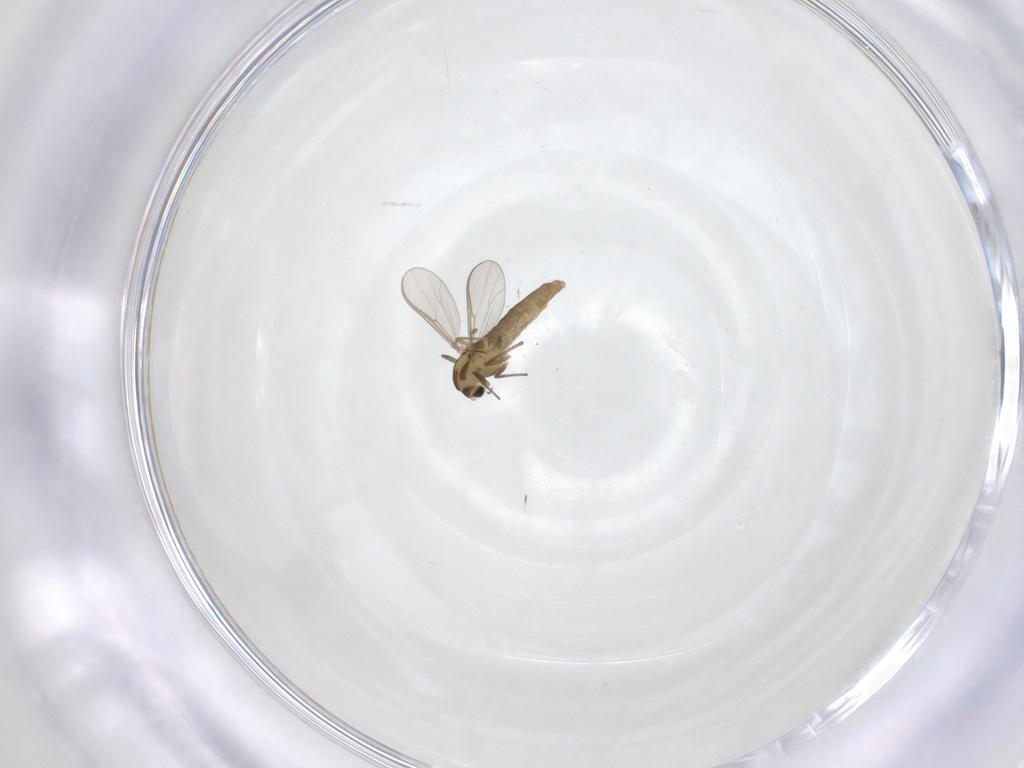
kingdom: Animalia
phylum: Arthropoda
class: Insecta
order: Diptera
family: Chironomidae
